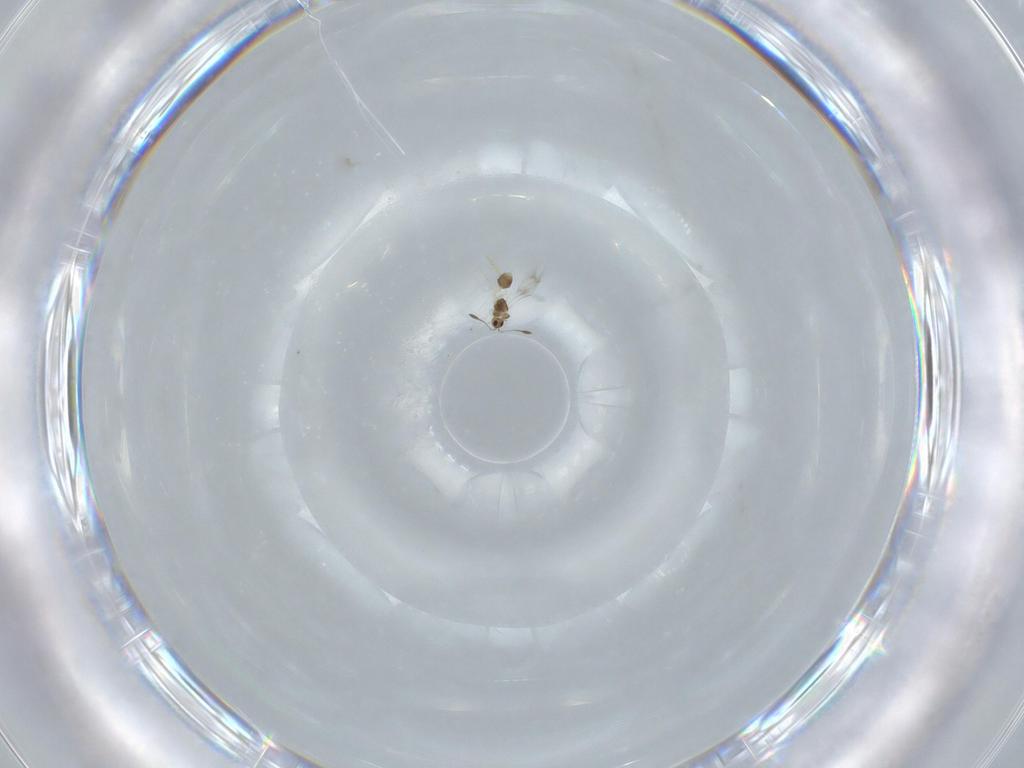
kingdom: Animalia
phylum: Arthropoda
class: Insecta
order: Hymenoptera
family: Mymarommatidae
